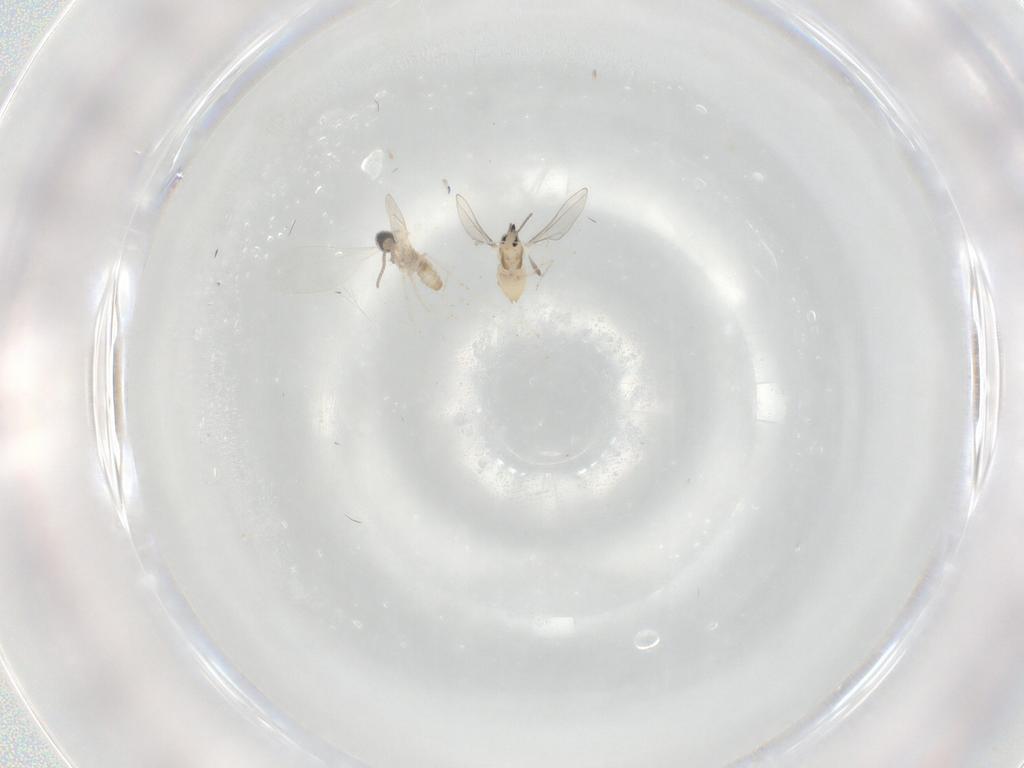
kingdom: Animalia
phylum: Arthropoda
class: Insecta
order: Diptera
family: Cecidomyiidae
